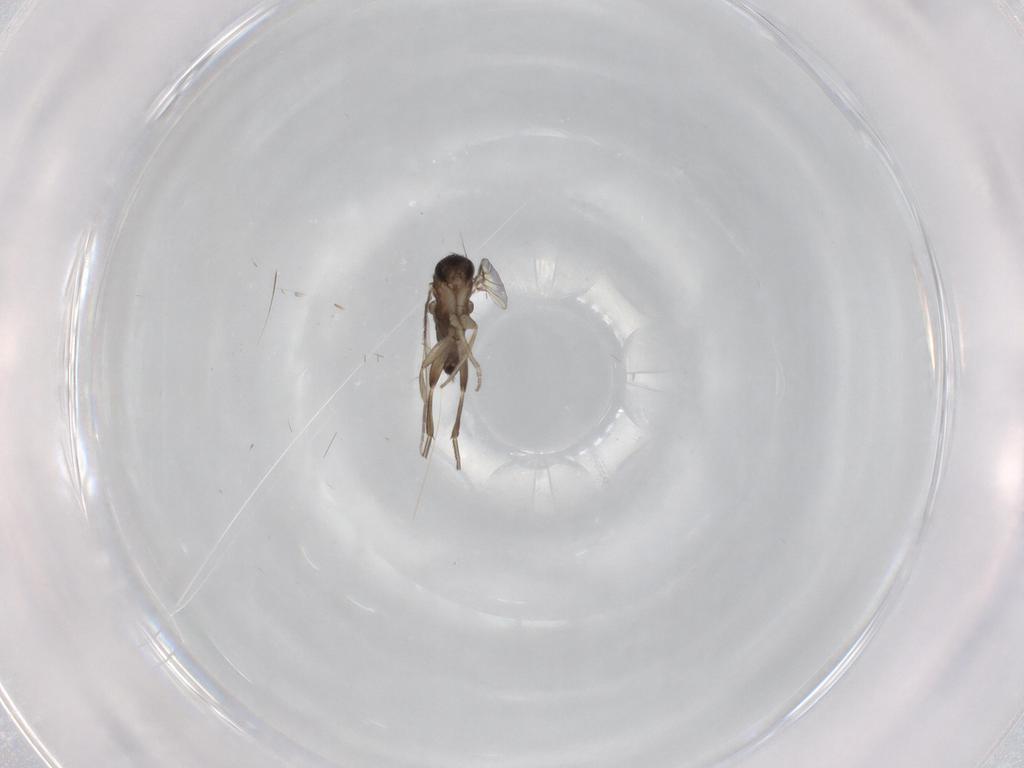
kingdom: Animalia
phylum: Arthropoda
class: Insecta
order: Diptera
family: Phoridae
